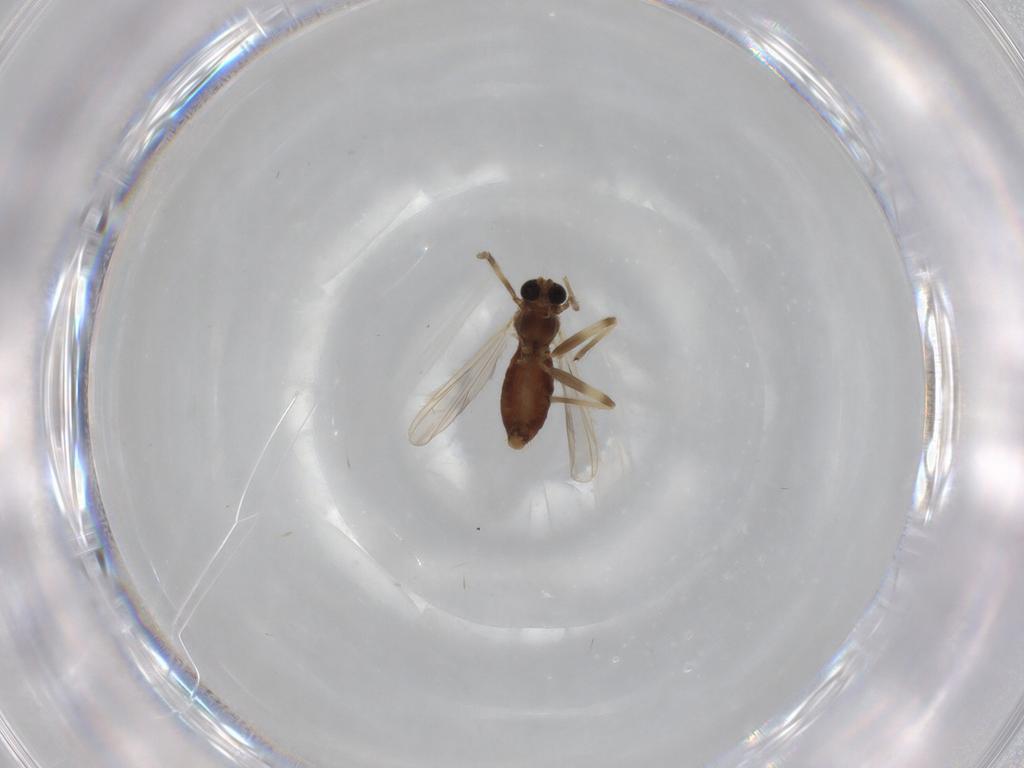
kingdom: Animalia
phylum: Arthropoda
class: Insecta
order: Diptera
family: Chironomidae
